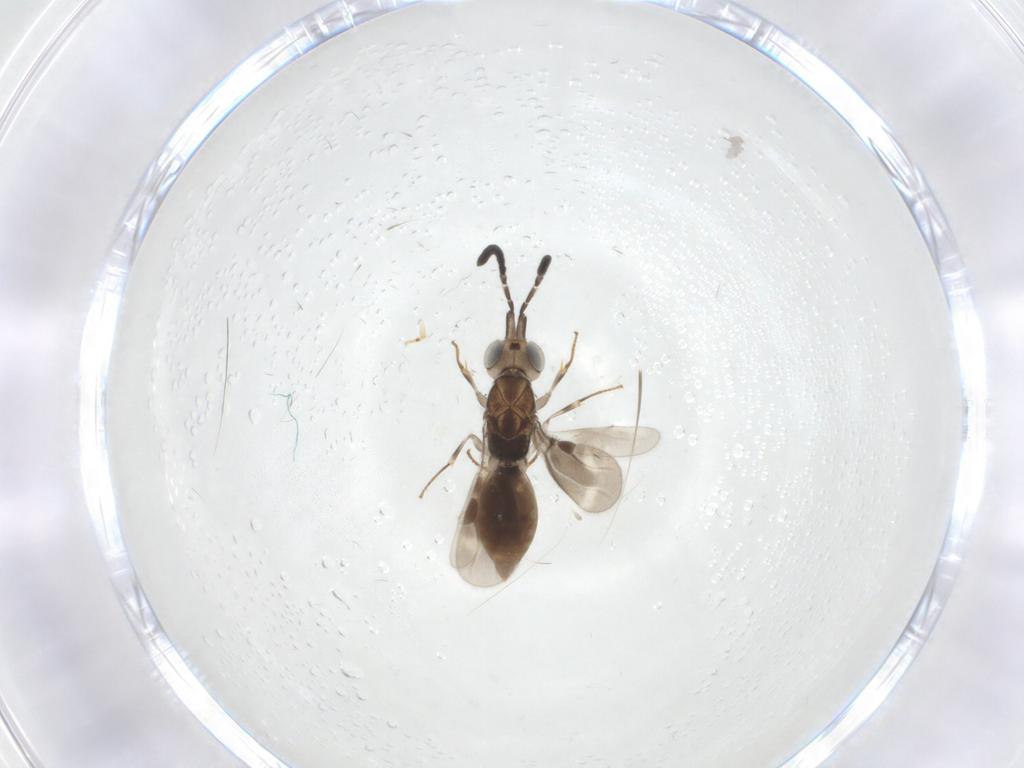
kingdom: Animalia
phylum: Arthropoda
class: Insecta
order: Hymenoptera
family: Megaspilidae
